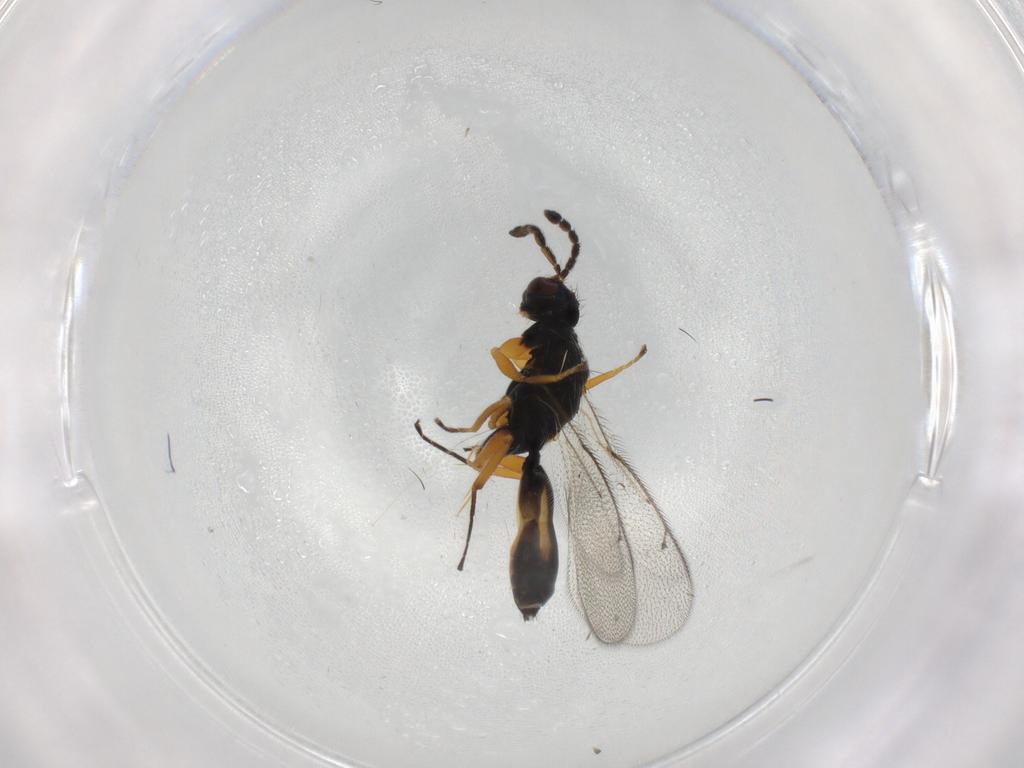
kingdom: Animalia
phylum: Arthropoda
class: Insecta
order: Hymenoptera
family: Eulophidae
